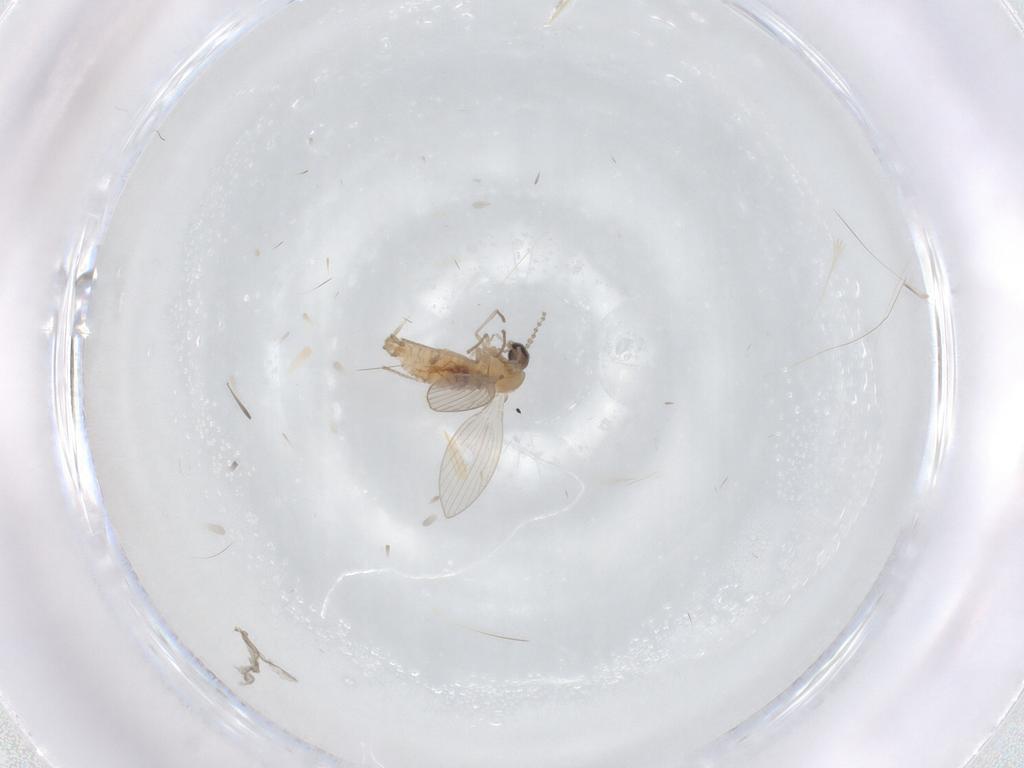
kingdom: Animalia
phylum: Arthropoda
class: Insecta
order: Diptera
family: Psychodidae
